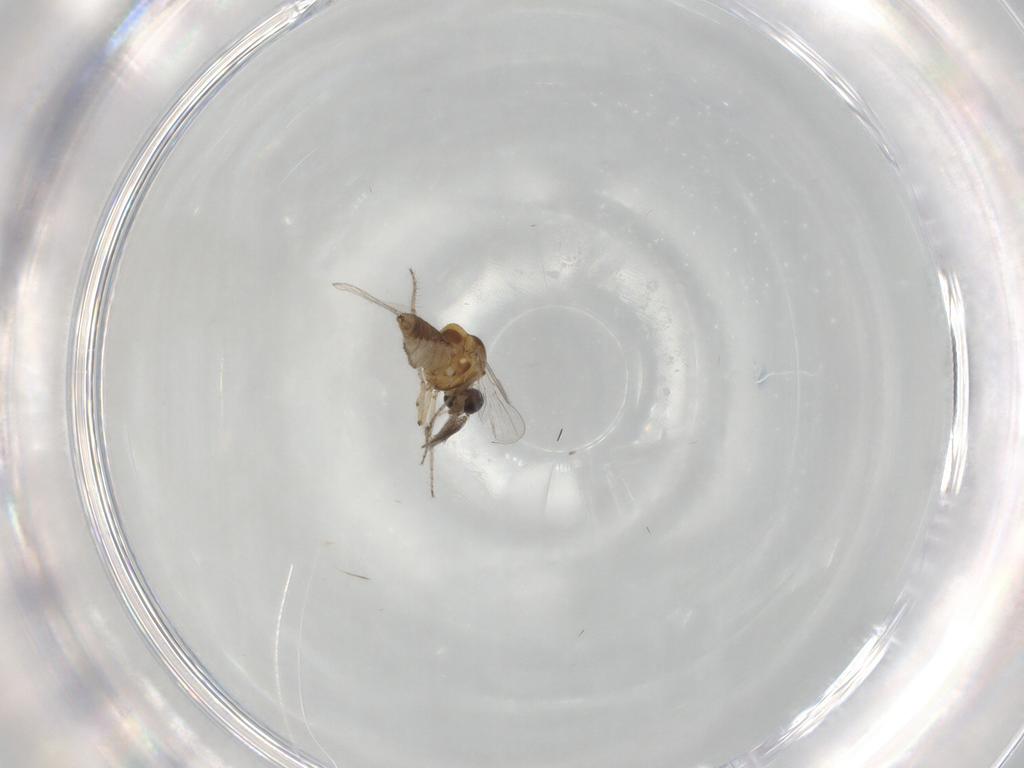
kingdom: Animalia
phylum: Arthropoda
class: Insecta
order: Diptera
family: Ceratopogonidae
